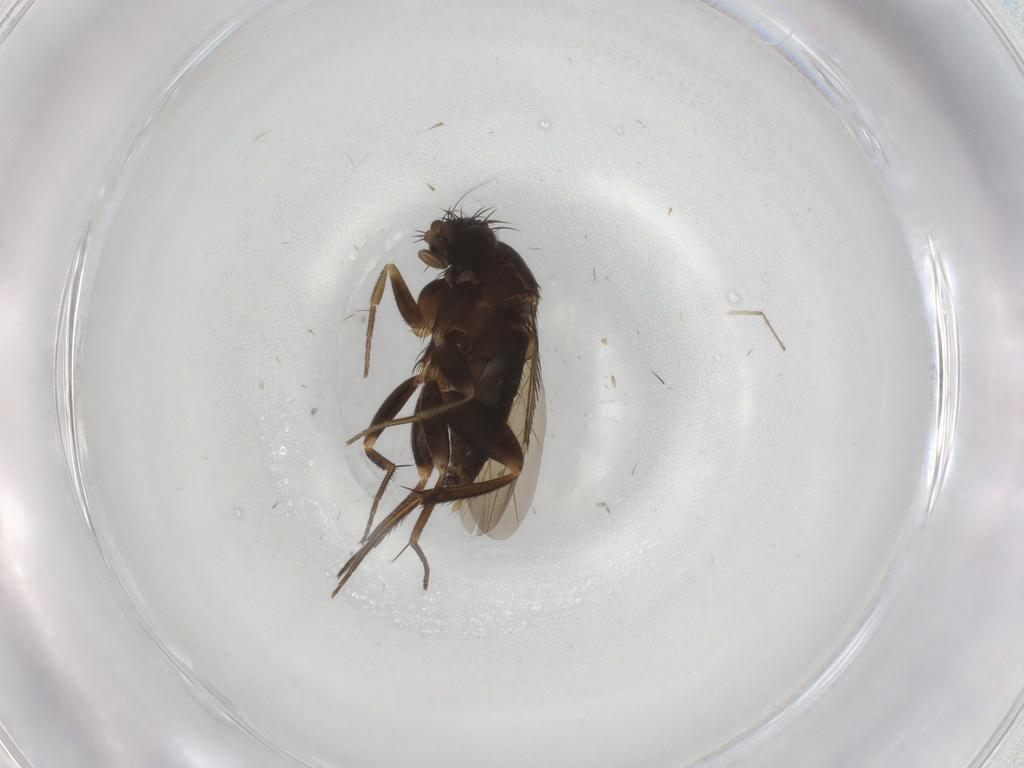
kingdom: Animalia
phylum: Arthropoda
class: Insecta
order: Diptera
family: Phoridae
